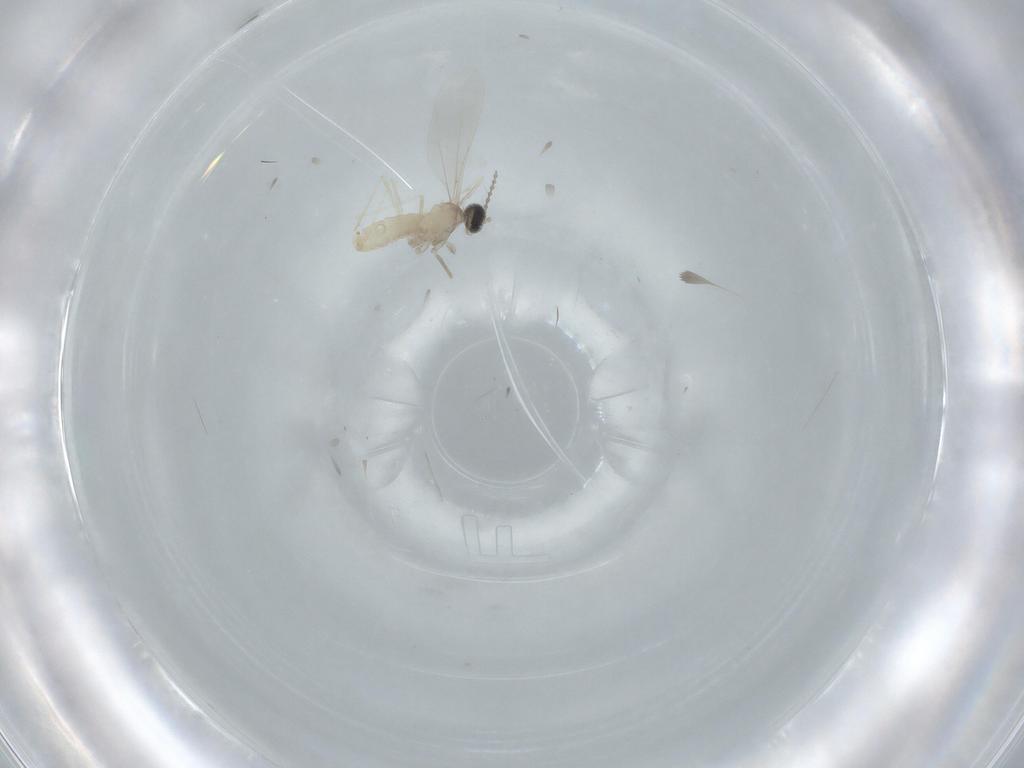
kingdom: Animalia
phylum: Arthropoda
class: Insecta
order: Diptera
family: Cecidomyiidae
